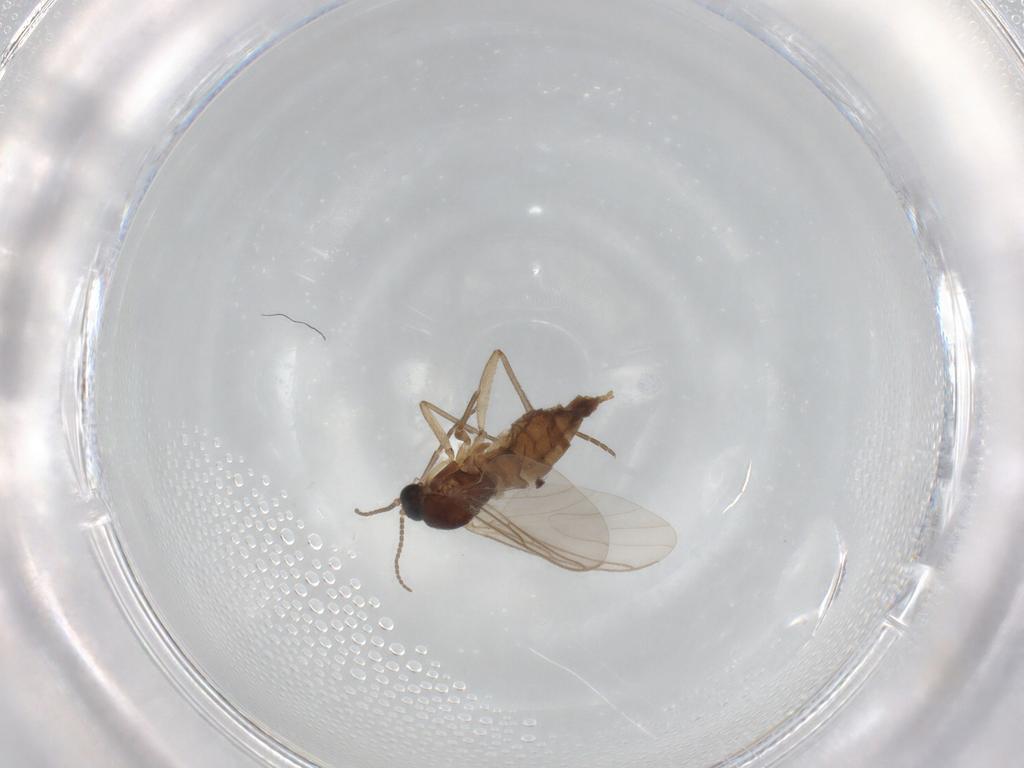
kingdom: Animalia
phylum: Arthropoda
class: Insecta
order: Diptera
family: Sciaridae
